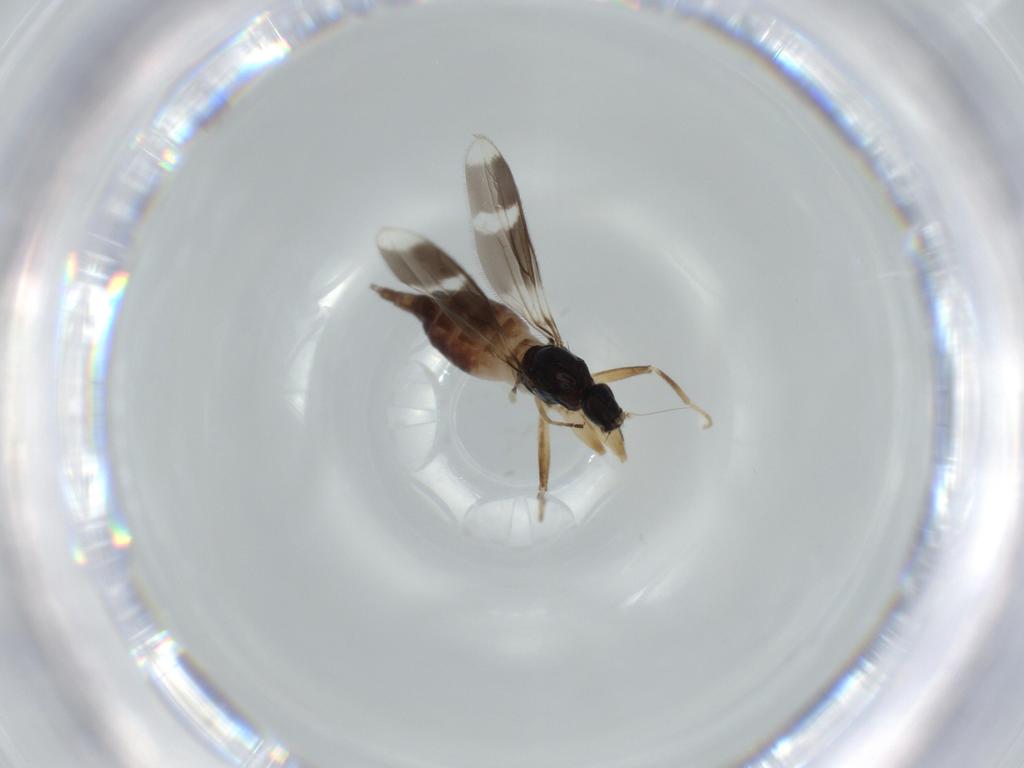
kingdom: Animalia
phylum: Arthropoda
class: Insecta
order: Diptera
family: Hybotidae
